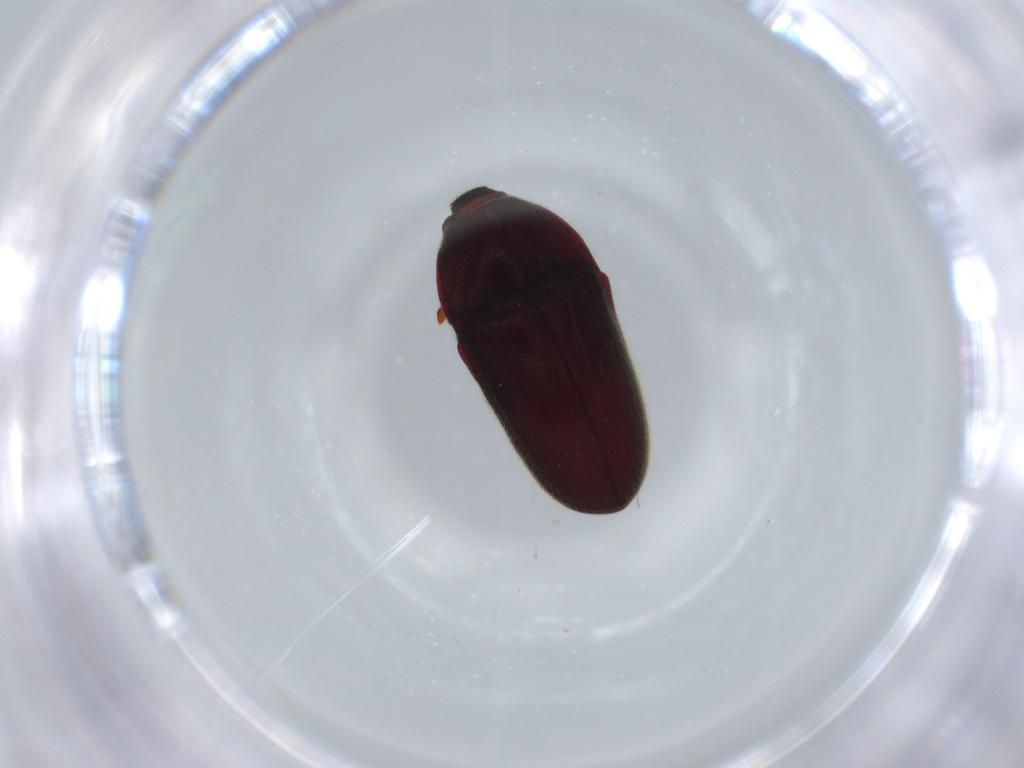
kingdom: Animalia
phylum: Arthropoda
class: Insecta
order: Coleoptera
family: Throscidae
